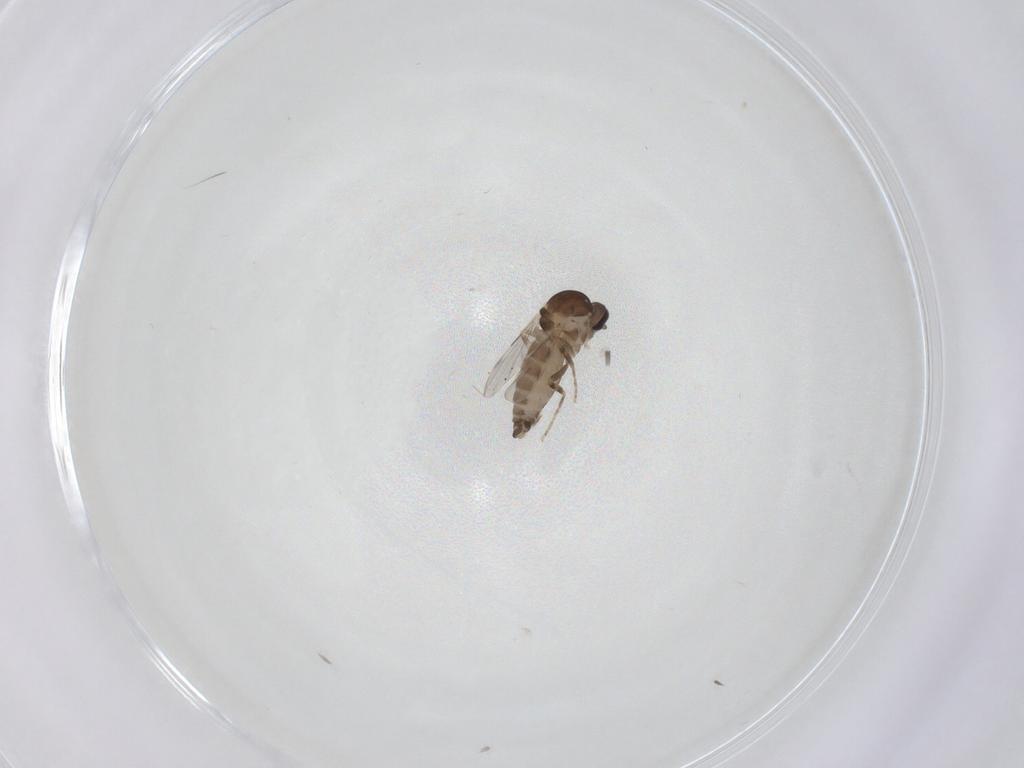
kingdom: Animalia
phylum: Arthropoda
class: Insecta
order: Diptera
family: Ceratopogonidae
